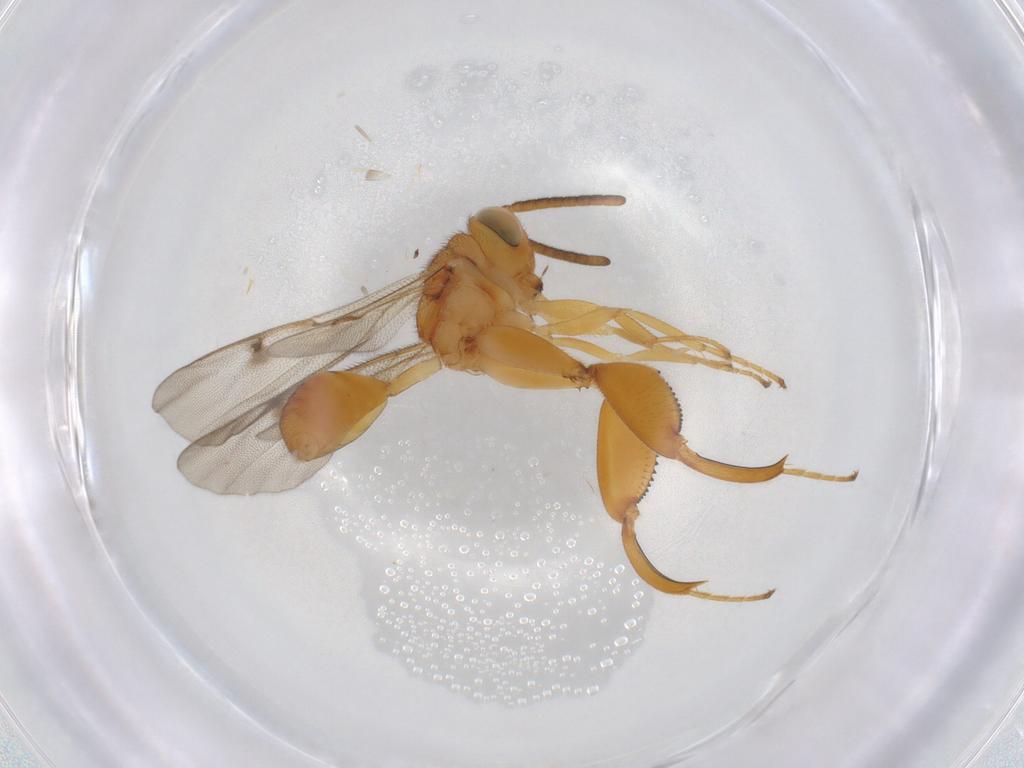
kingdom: Animalia
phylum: Arthropoda
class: Insecta
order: Hymenoptera
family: Chalcididae
